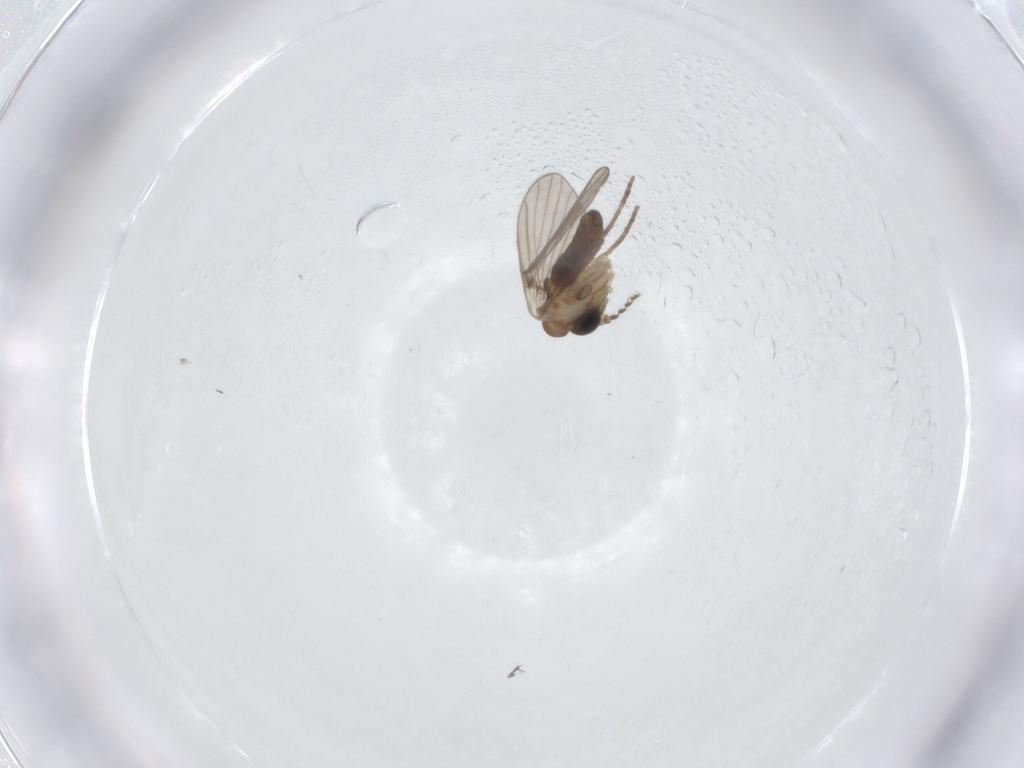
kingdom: Animalia
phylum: Arthropoda
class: Insecta
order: Diptera
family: Cecidomyiidae
